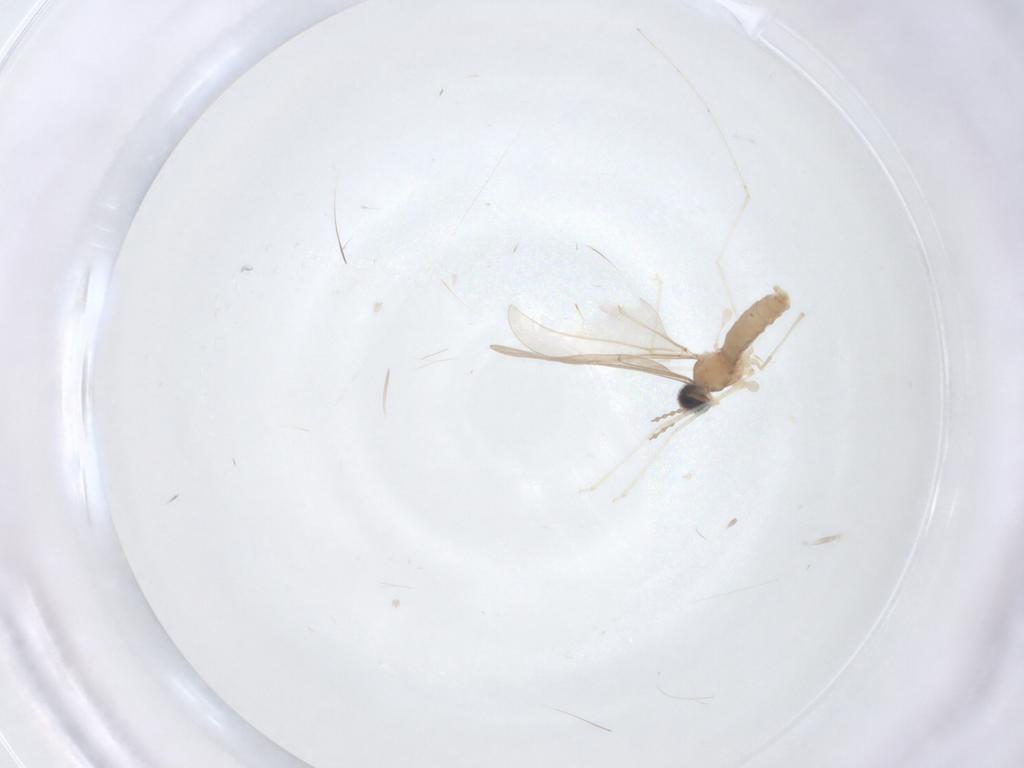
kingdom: Animalia
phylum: Arthropoda
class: Insecta
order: Diptera
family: Cecidomyiidae
